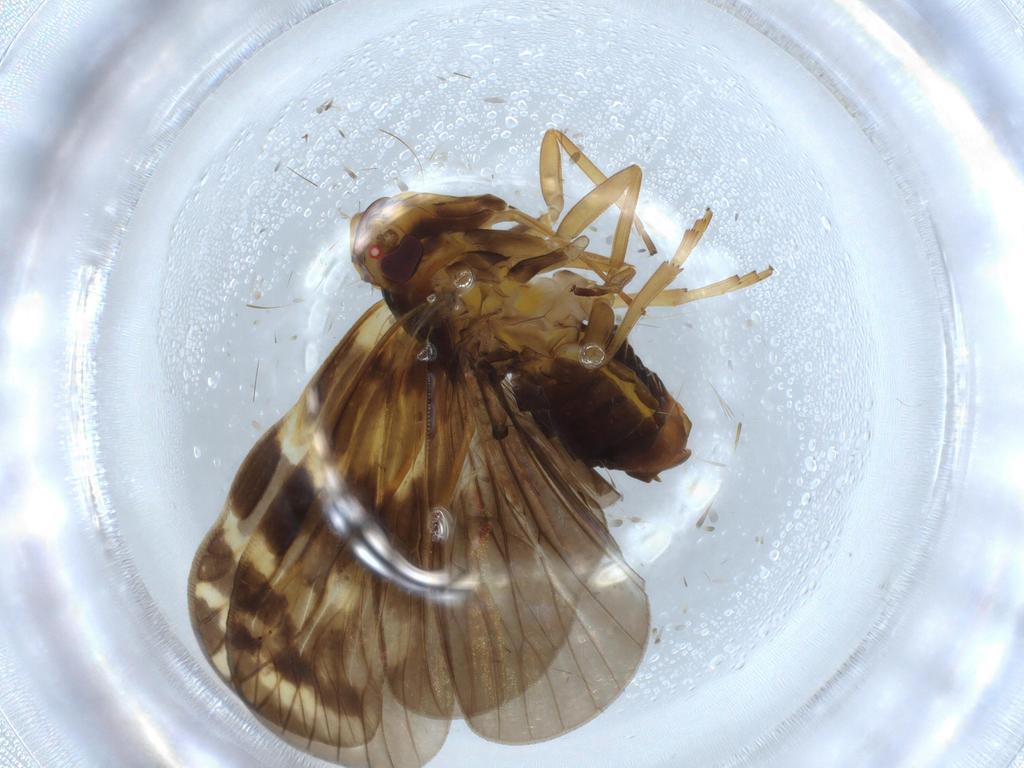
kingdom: Animalia
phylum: Arthropoda
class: Insecta
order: Hemiptera
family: Cixiidae
